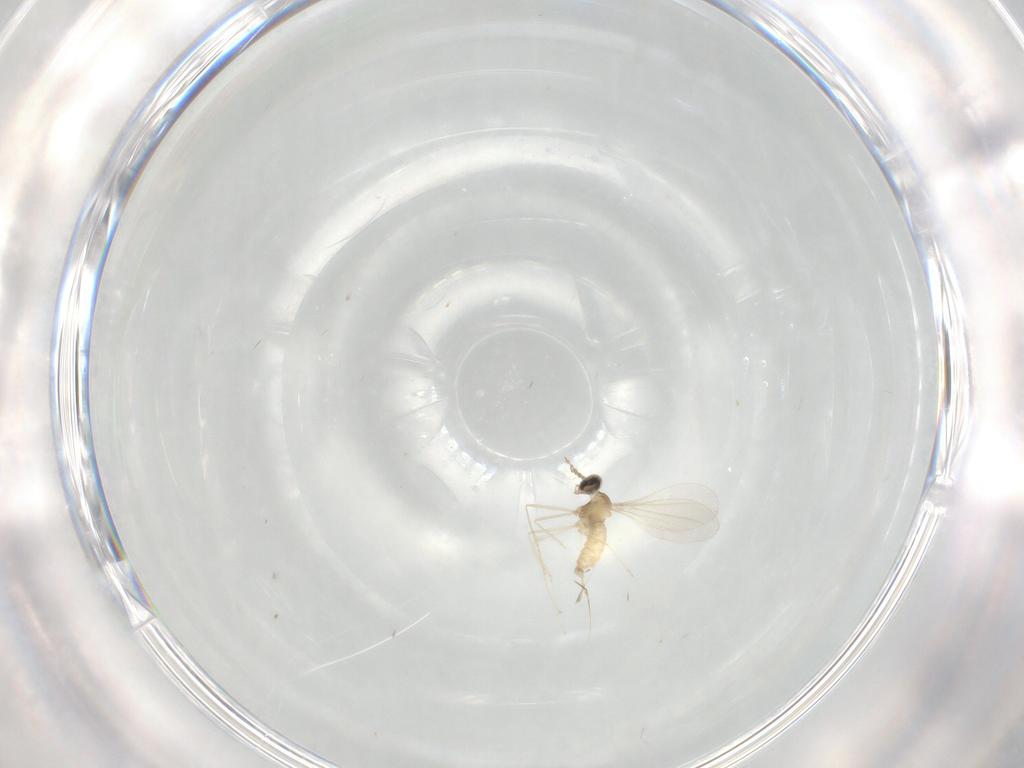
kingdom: Animalia
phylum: Arthropoda
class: Insecta
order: Diptera
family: Cecidomyiidae
